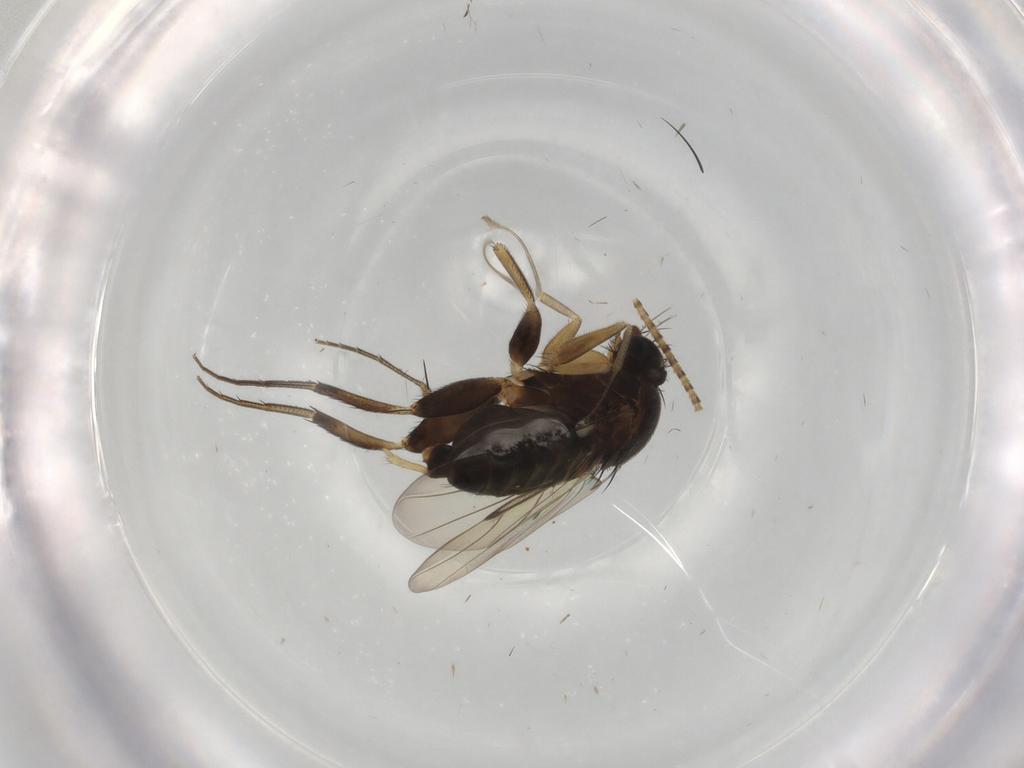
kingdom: Animalia
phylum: Arthropoda
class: Insecta
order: Diptera
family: Phoridae
